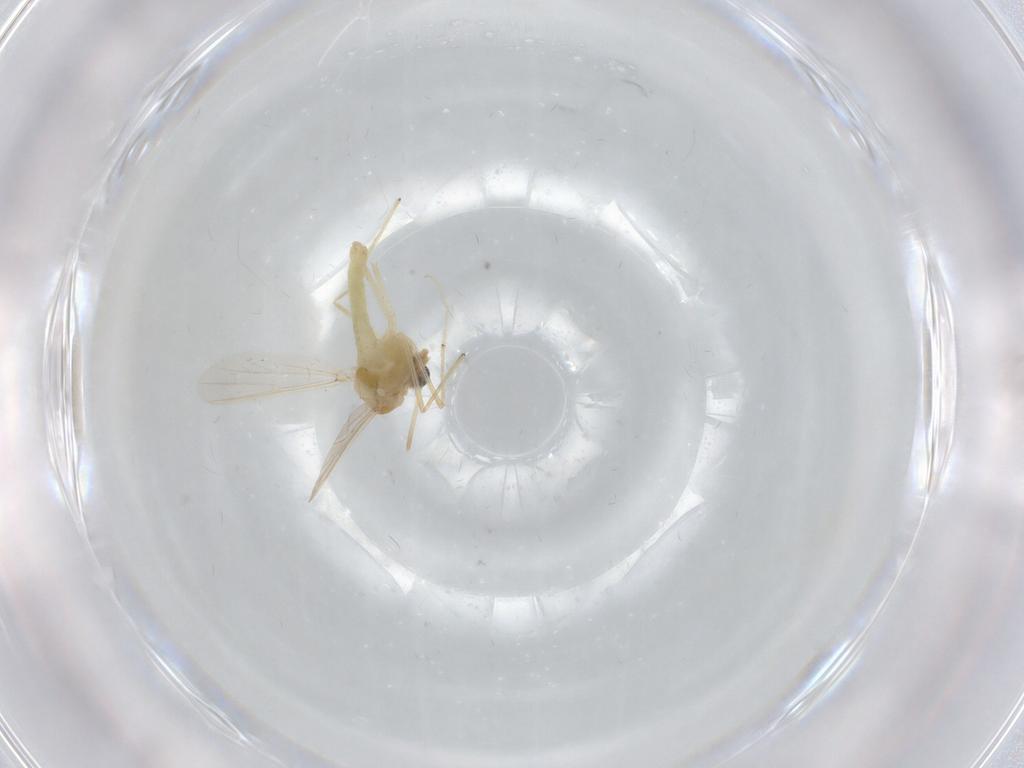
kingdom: Animalia
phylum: Arthropoda
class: Insecta
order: Diptera
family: Chironomidae
